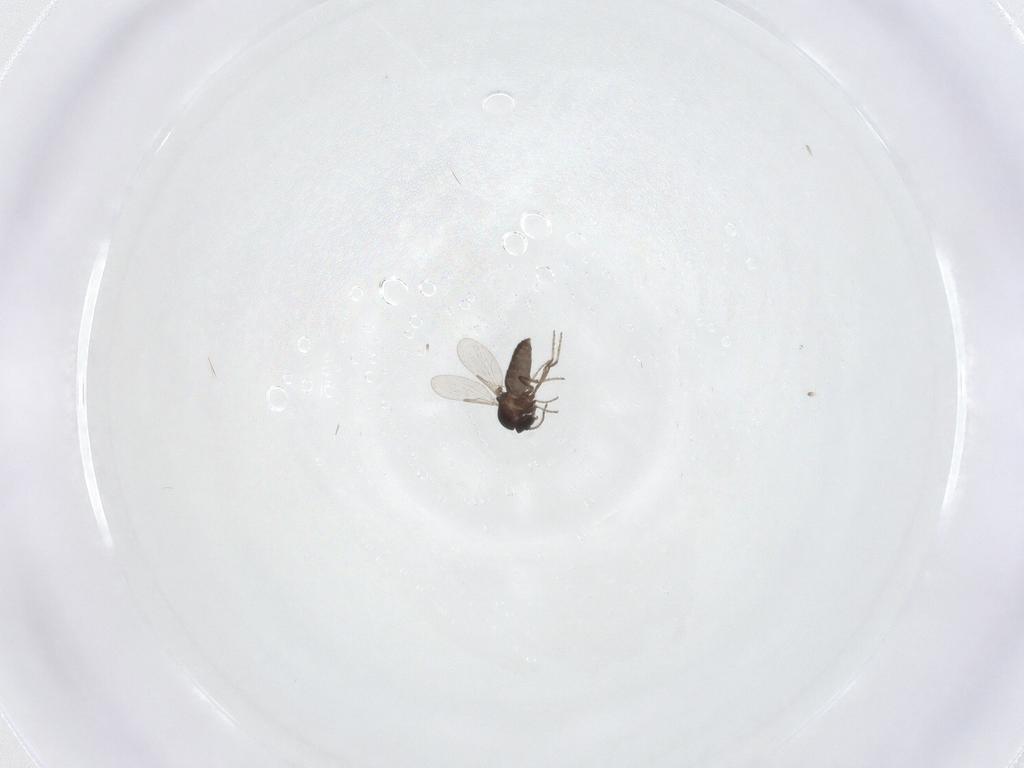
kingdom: Animalia
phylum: Arthropoda
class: Insecta
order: Diptera
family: Ceratopogonidae
